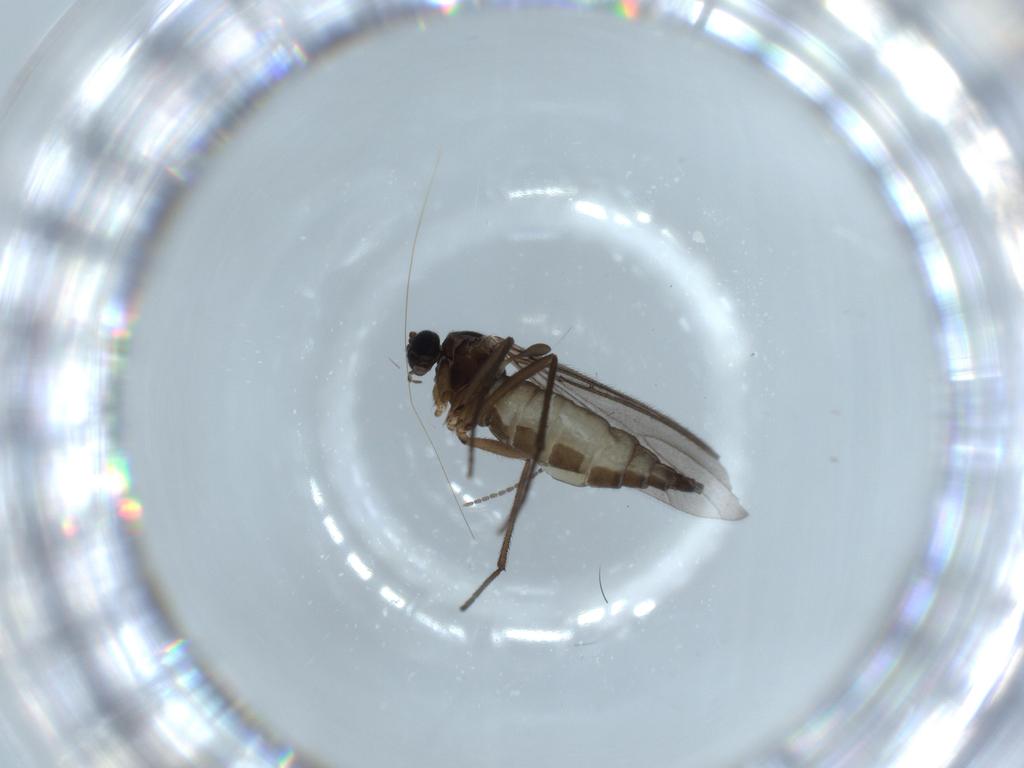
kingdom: Animalia
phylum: Arthropoda
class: Insecta
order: Diptera
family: Sciaridae
